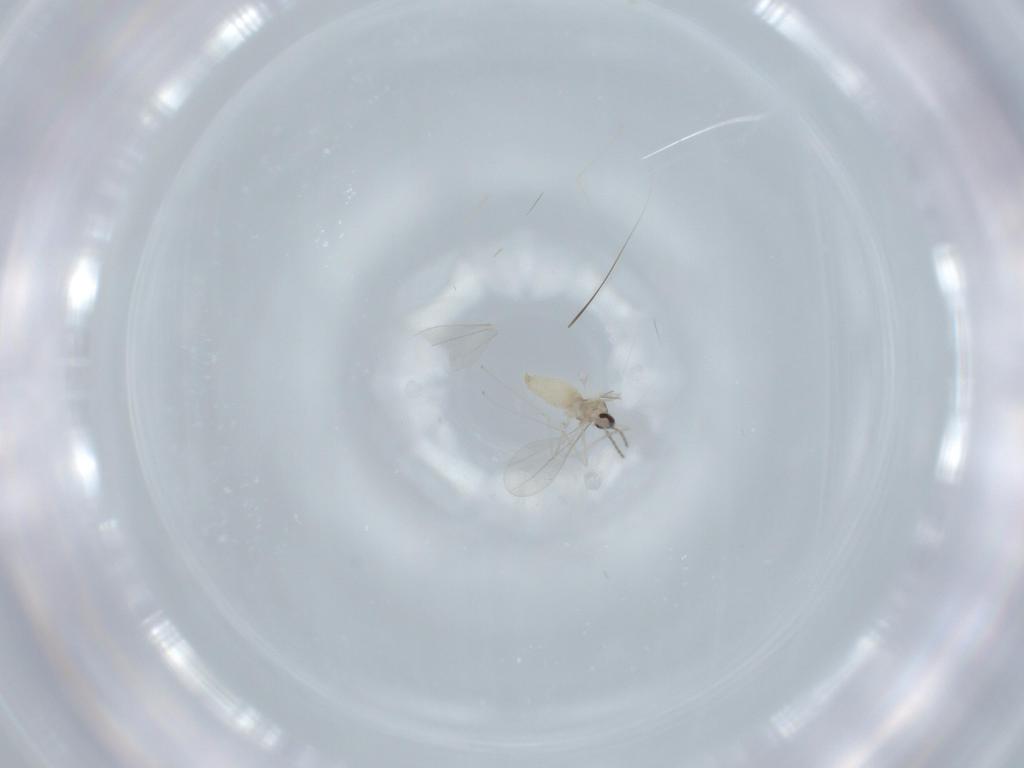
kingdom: Animalia
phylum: Arthropoda
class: Insecta
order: Diptera
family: Cecidomyiidae
